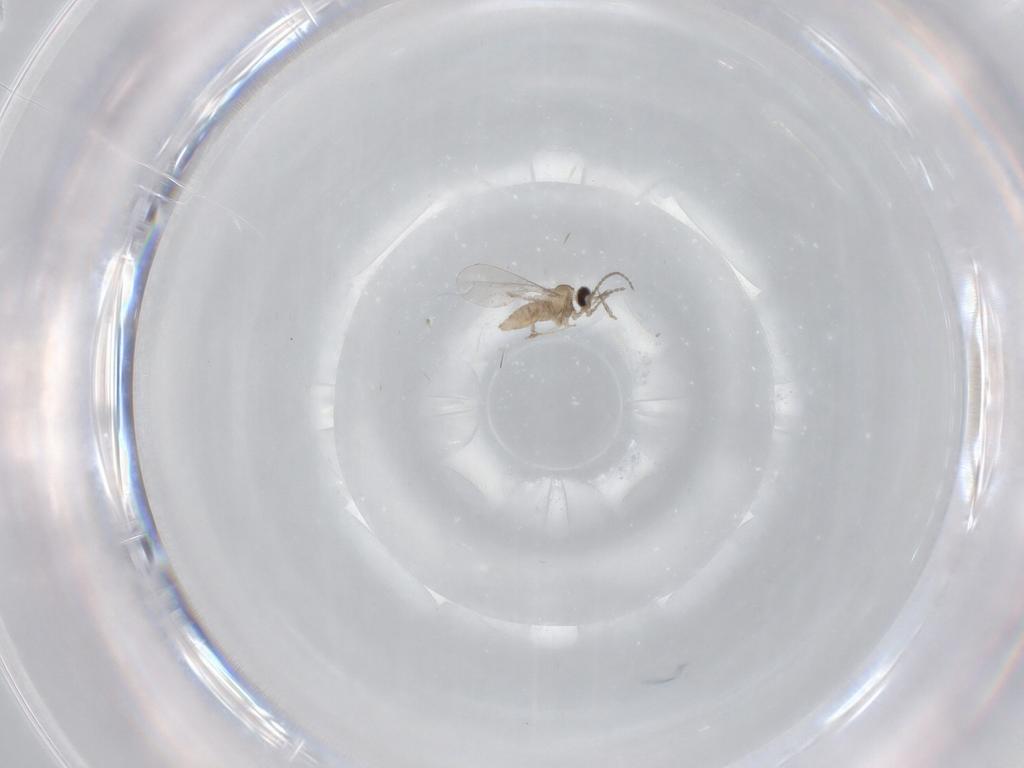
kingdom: Animalia
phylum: Arthropoda
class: Insecta
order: Diptera
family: Cecidomyiidae
